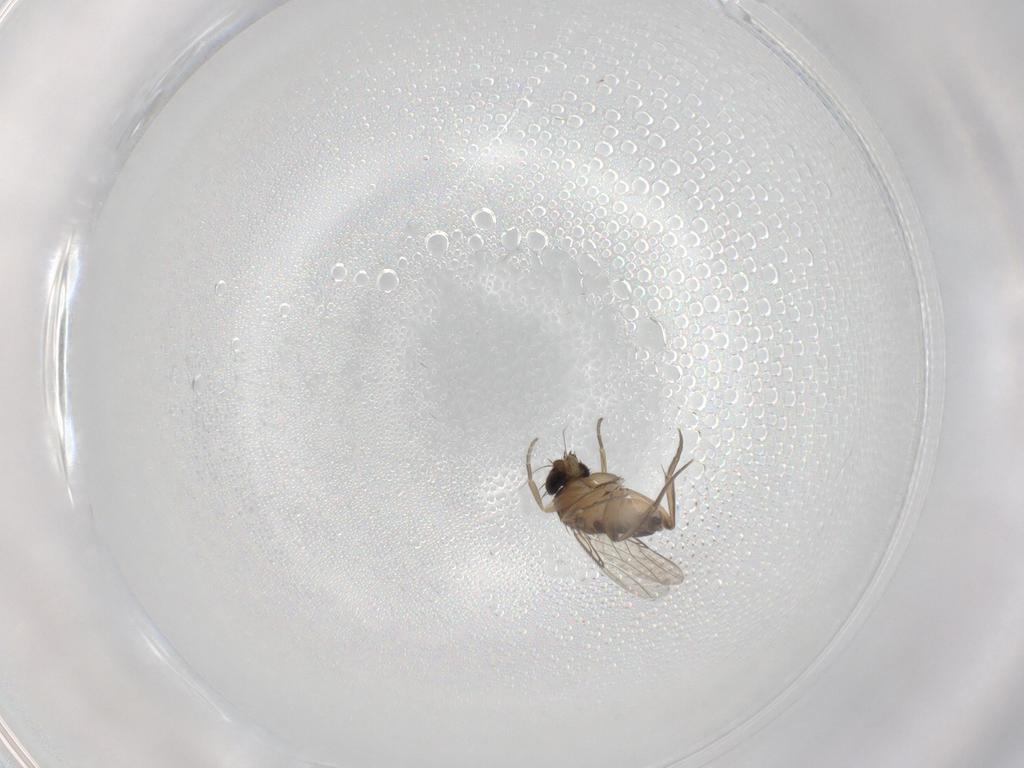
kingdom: Animalia
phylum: Arthropoda
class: Insecta
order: Diptera
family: Phoridae
